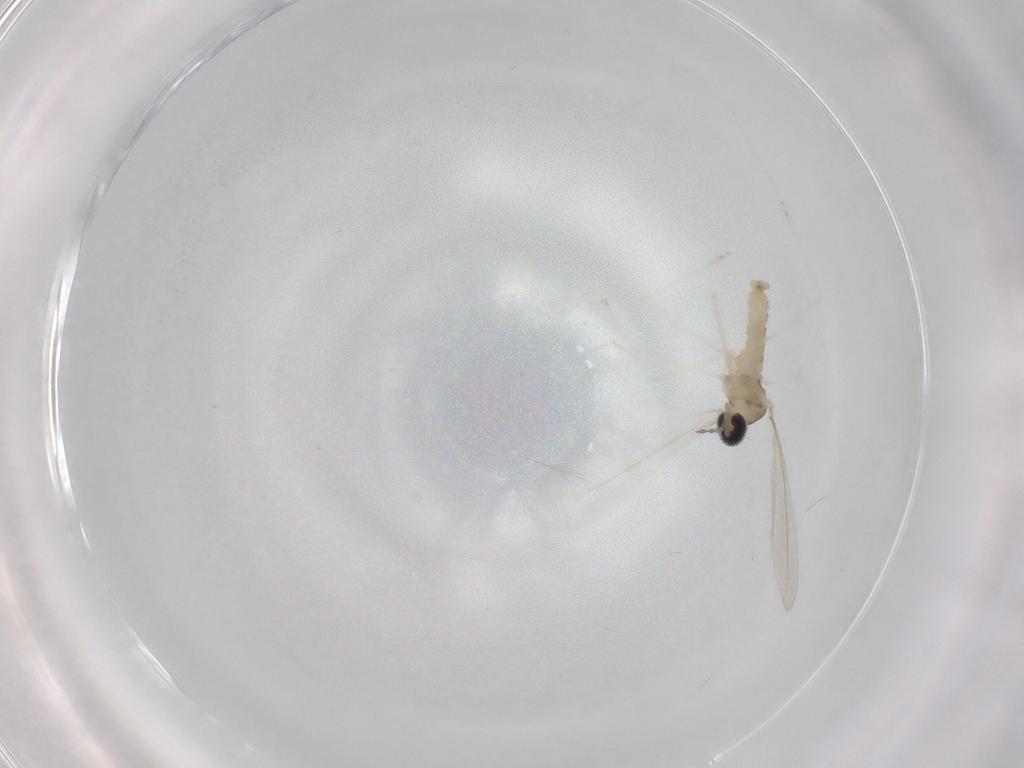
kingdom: Animalia
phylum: Arthropoda
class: Insecta
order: Diptera
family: Cecidomyiidae
